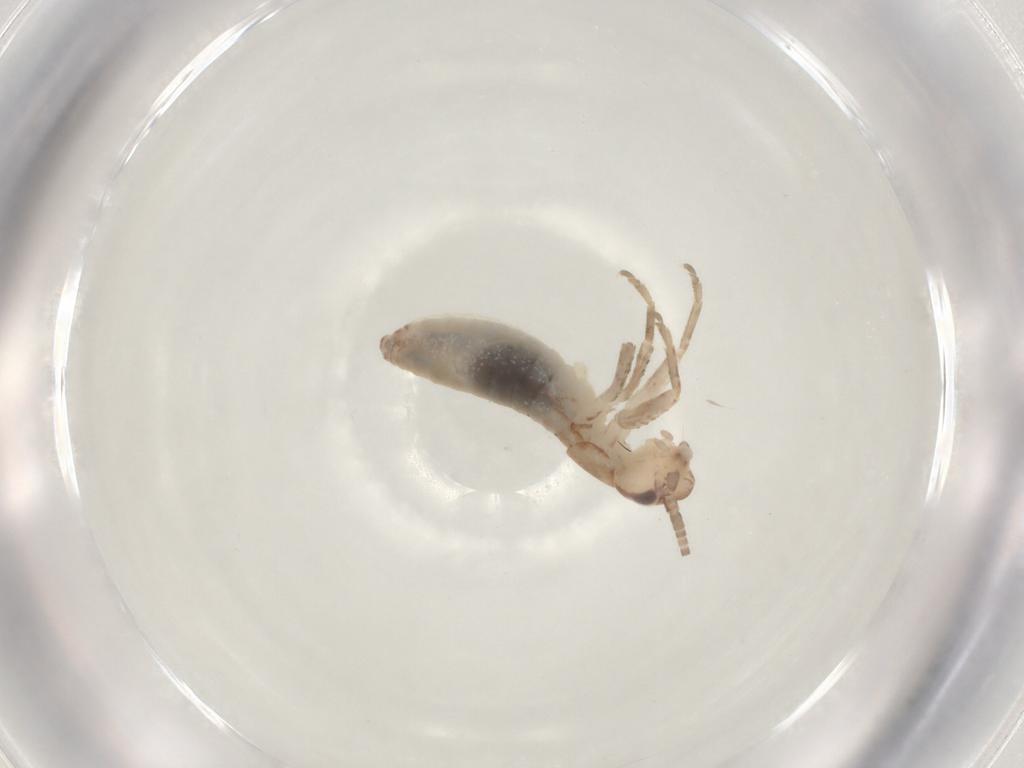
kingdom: Animalia
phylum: Arthropoda
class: Insecta
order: Orthoptera
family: Mogoplistidae
